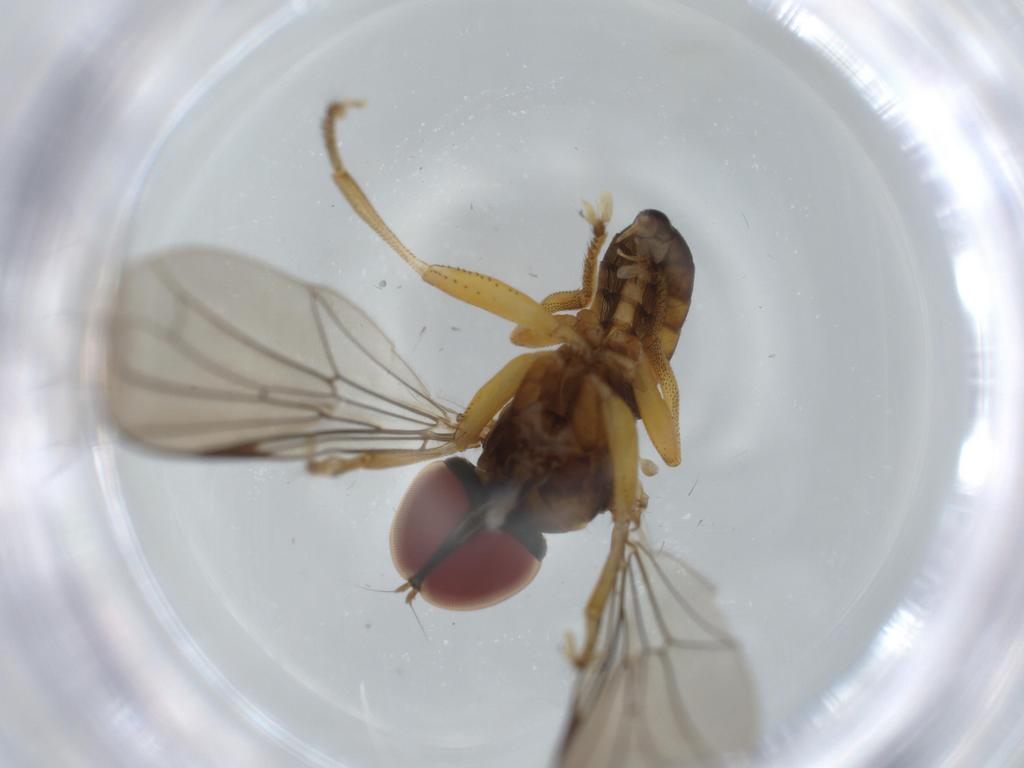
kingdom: Animalia
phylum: Arthropoda
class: Insecta
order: Diptera
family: Pipunculidae
